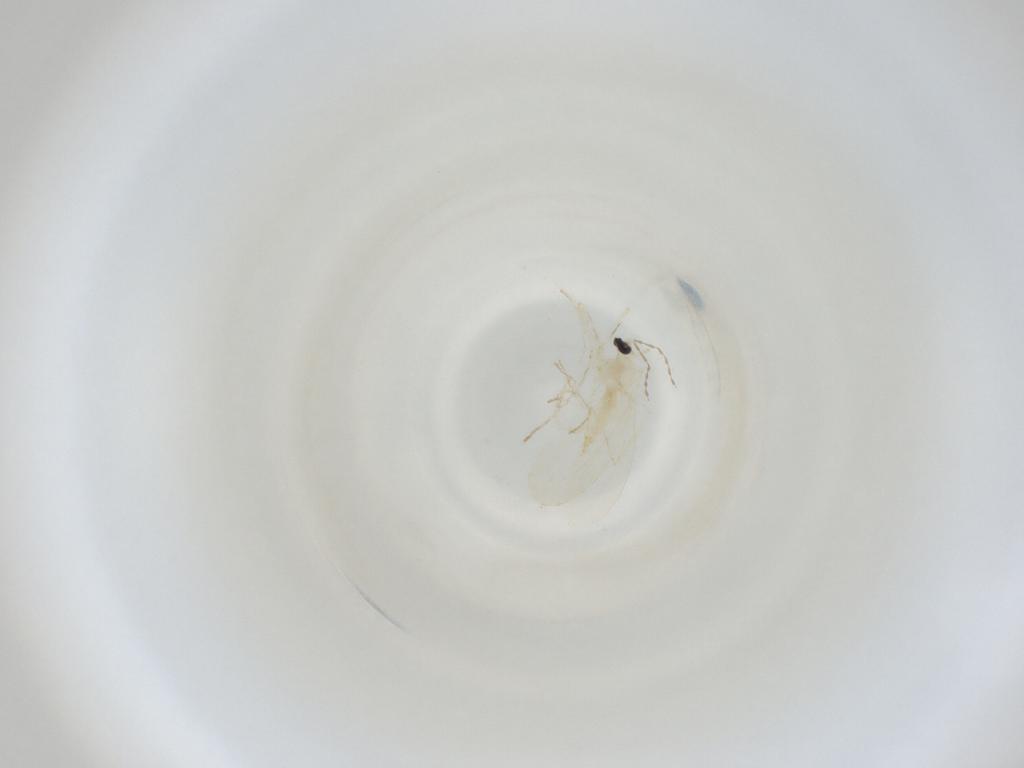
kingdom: Animalia
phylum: Arthropoda
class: Insecta
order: Diptera
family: Cecidomyiidae
